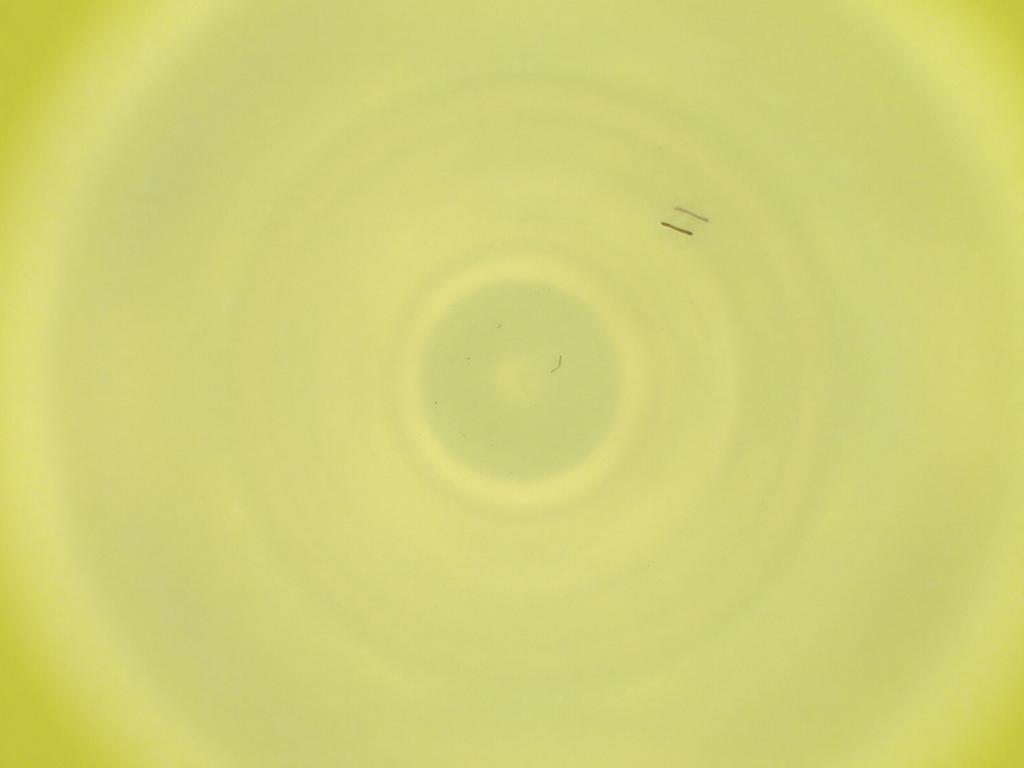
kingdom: Animalia
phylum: Arthropoda
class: Insecta
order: Diptera
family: Cecidomyiidae
